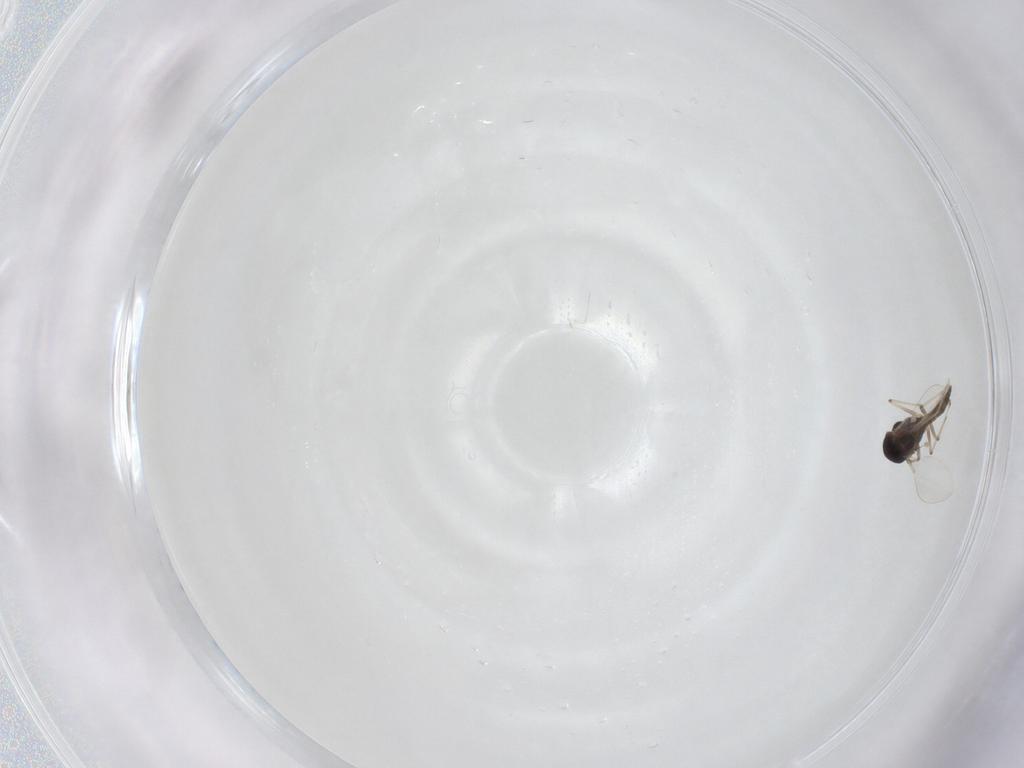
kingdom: Animalia
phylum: Arthropoda
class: Insecta
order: Diptera
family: Chironomidae
